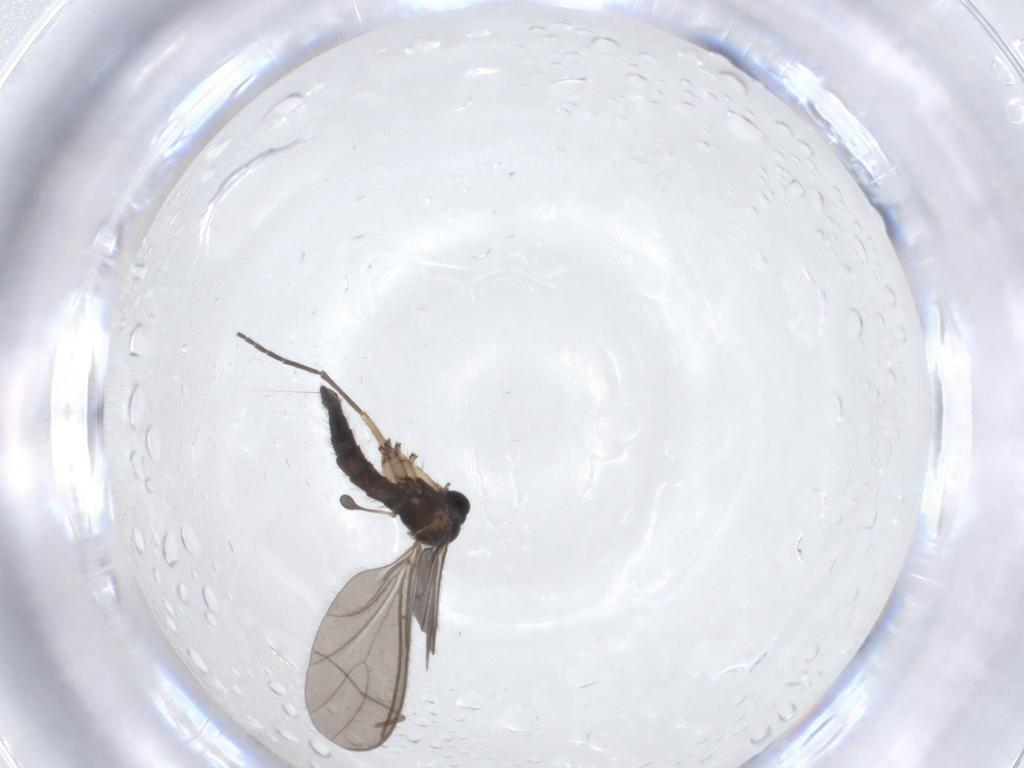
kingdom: Animalia
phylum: Arthropoda
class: Insecta
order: Diptera
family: Sciaridae
